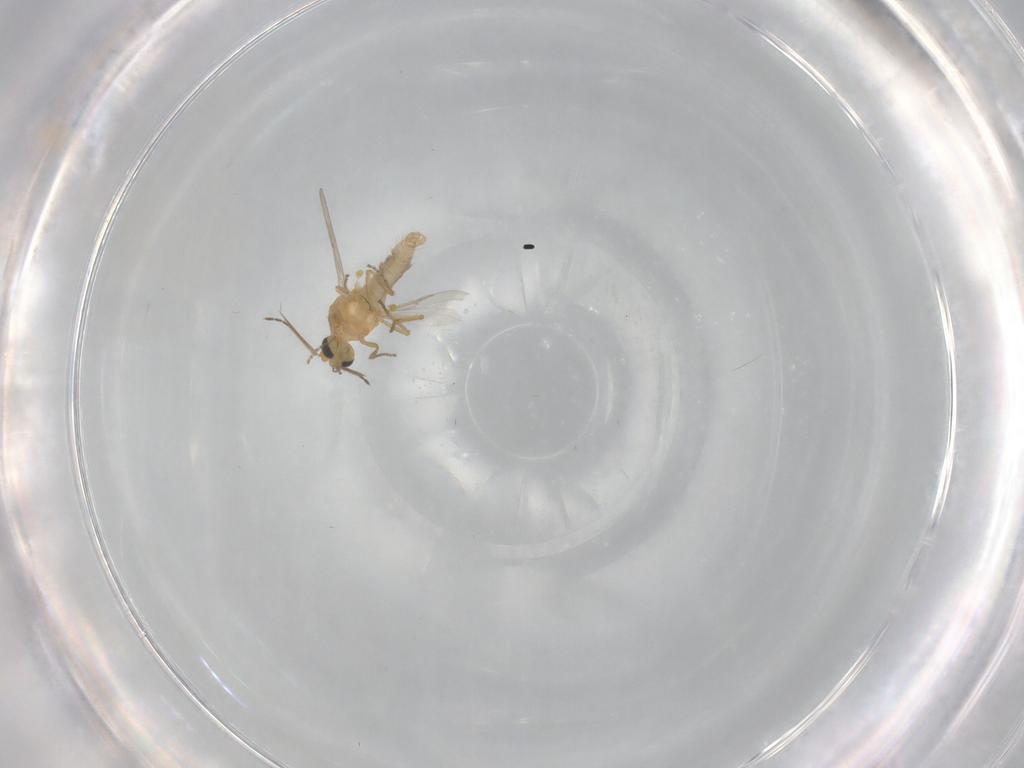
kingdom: Animalia
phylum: Arthropoda
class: Insecta
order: Diptera
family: Ceratopogonidae
